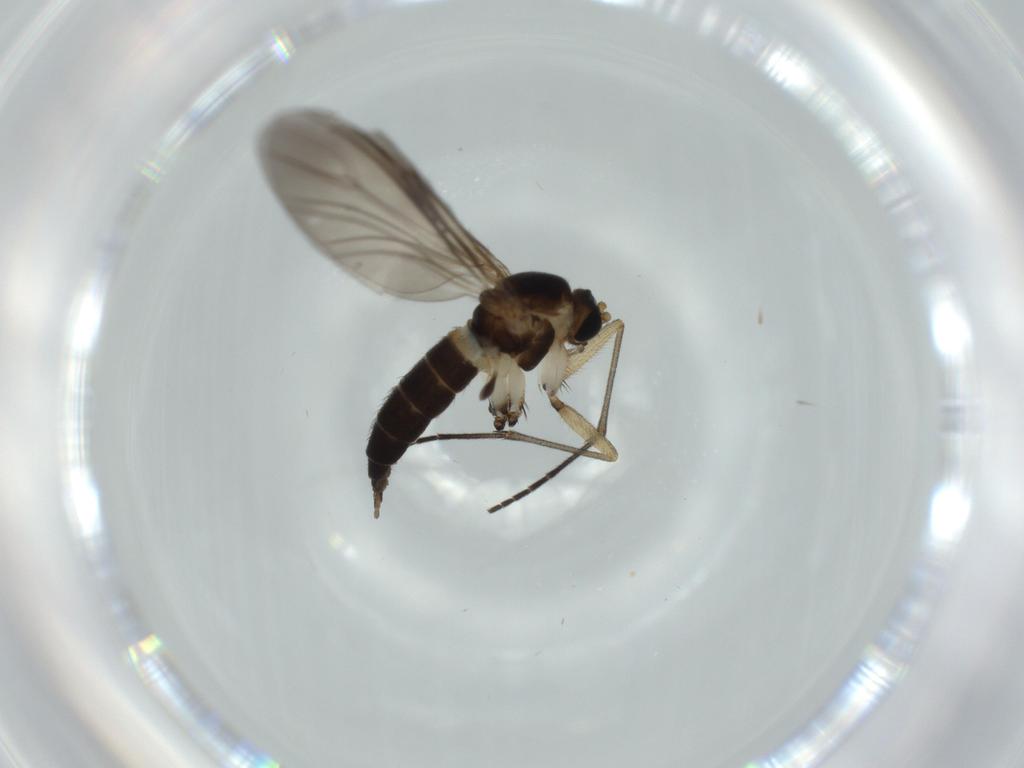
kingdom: Animalia
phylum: Arthropoda
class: Insecta
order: Diptera
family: Sciaridae
